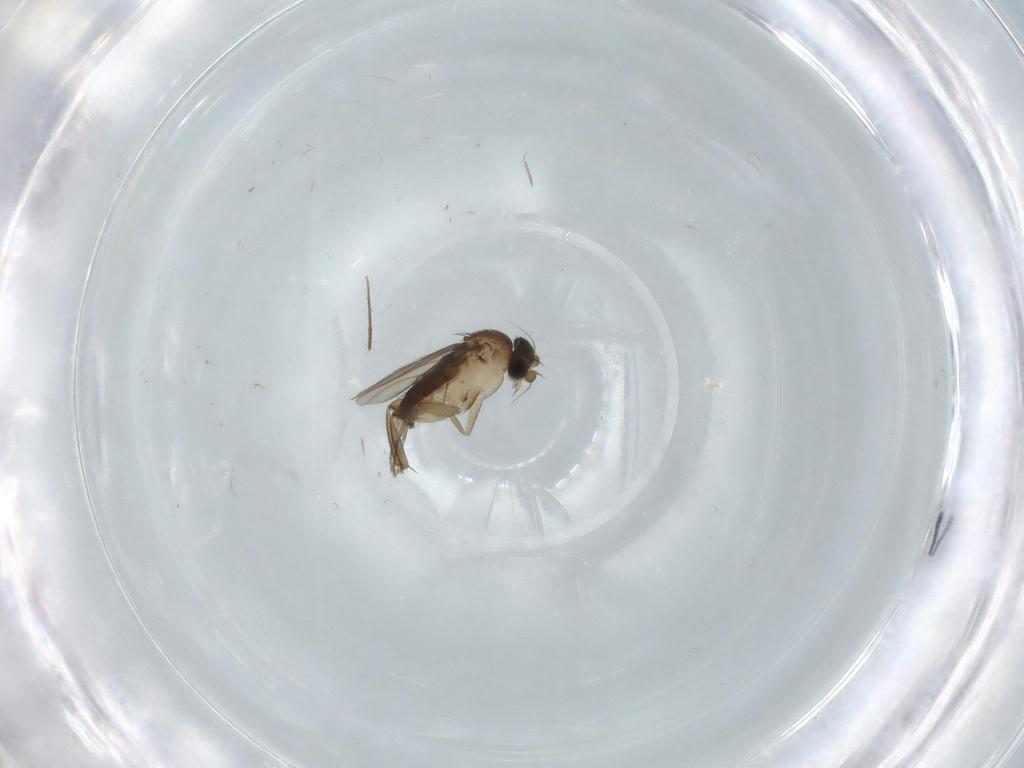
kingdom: Animalia
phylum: Arthropoda
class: Insecta
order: Diptera
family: Phoridae
